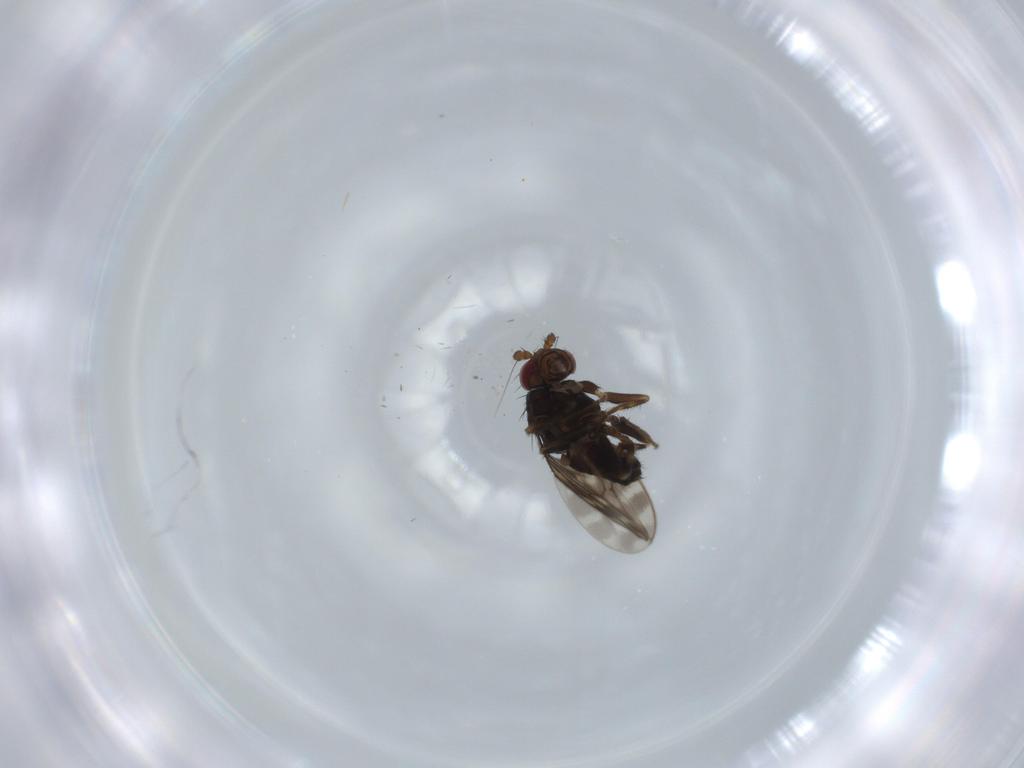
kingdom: Animalia
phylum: Arthropoda
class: Insecta
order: Diptera
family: Sphaeroceridae
